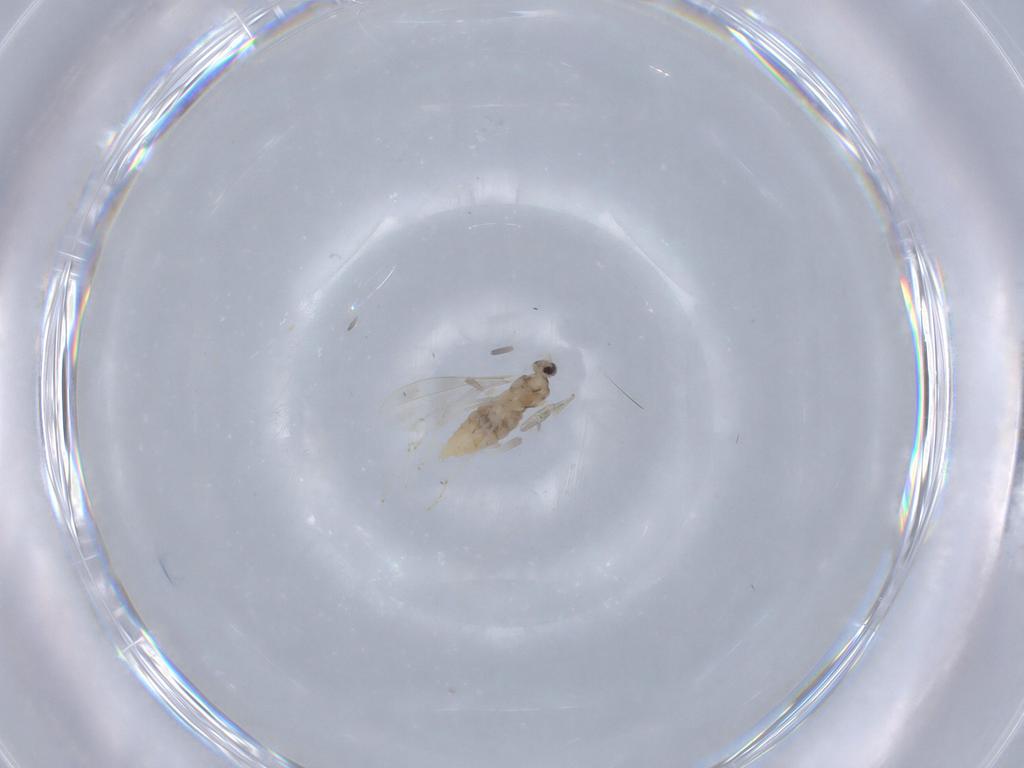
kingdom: Animalia
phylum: Arthropoda
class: Insecta
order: Diptera
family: Cecidomyiidae
